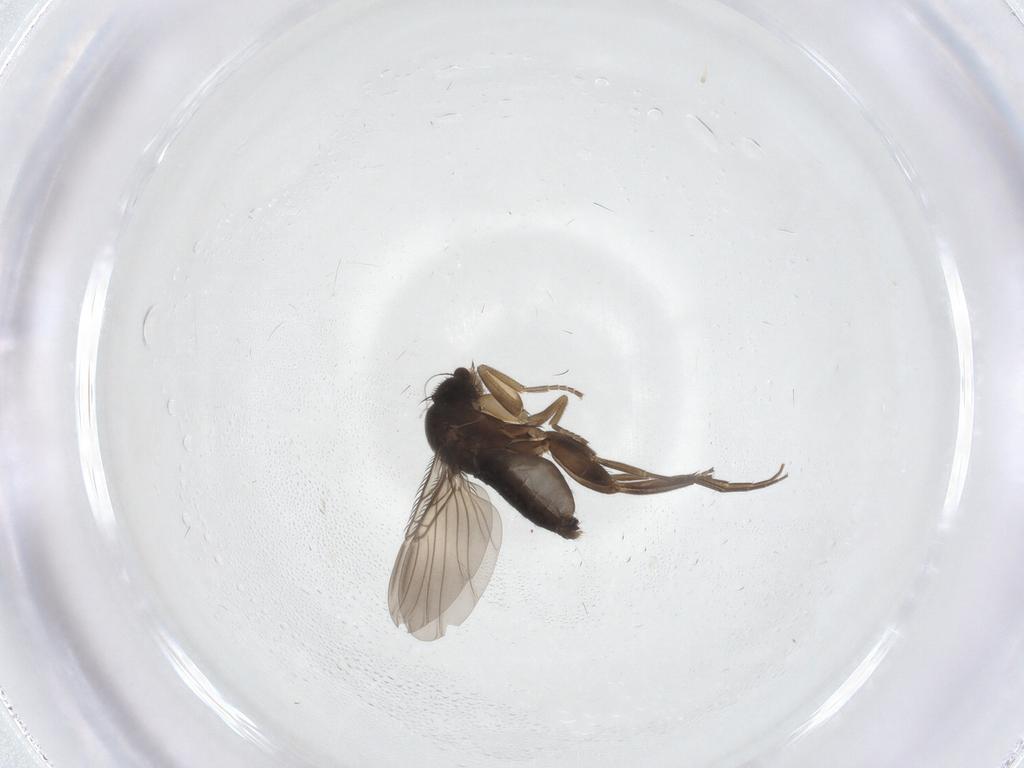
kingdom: Animalia
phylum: Arthropoda
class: Insecta
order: Diptera
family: Phoridae
